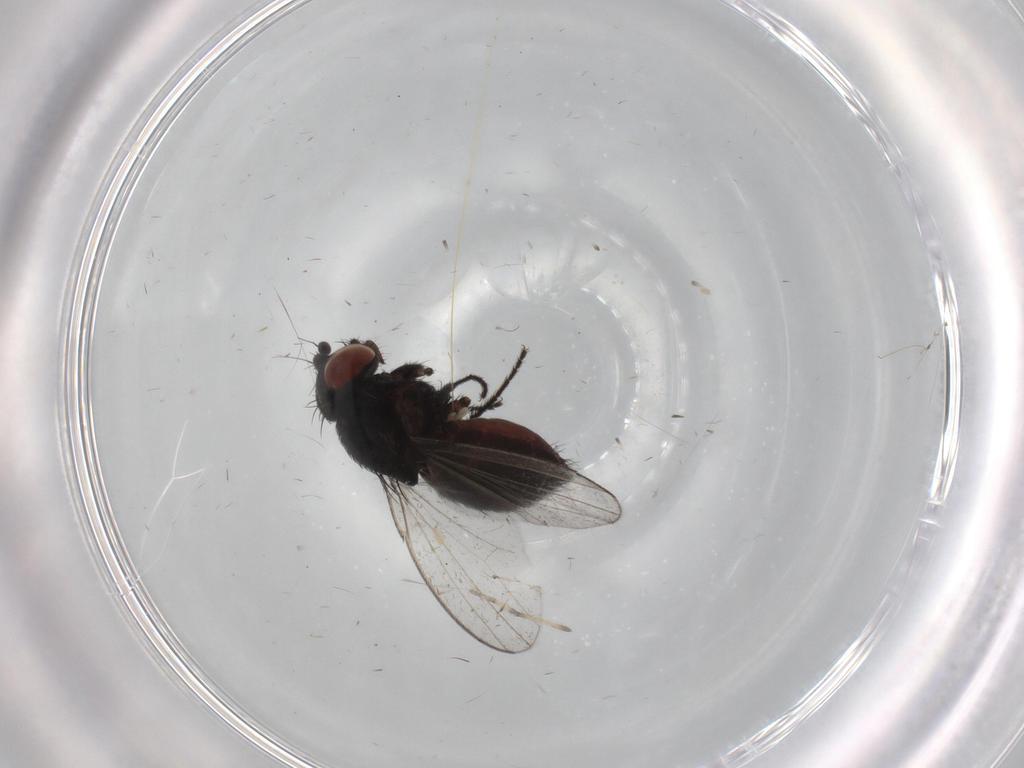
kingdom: Animalia
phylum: Arthropoda
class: Insecta
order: Diptera
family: Milichiidae
